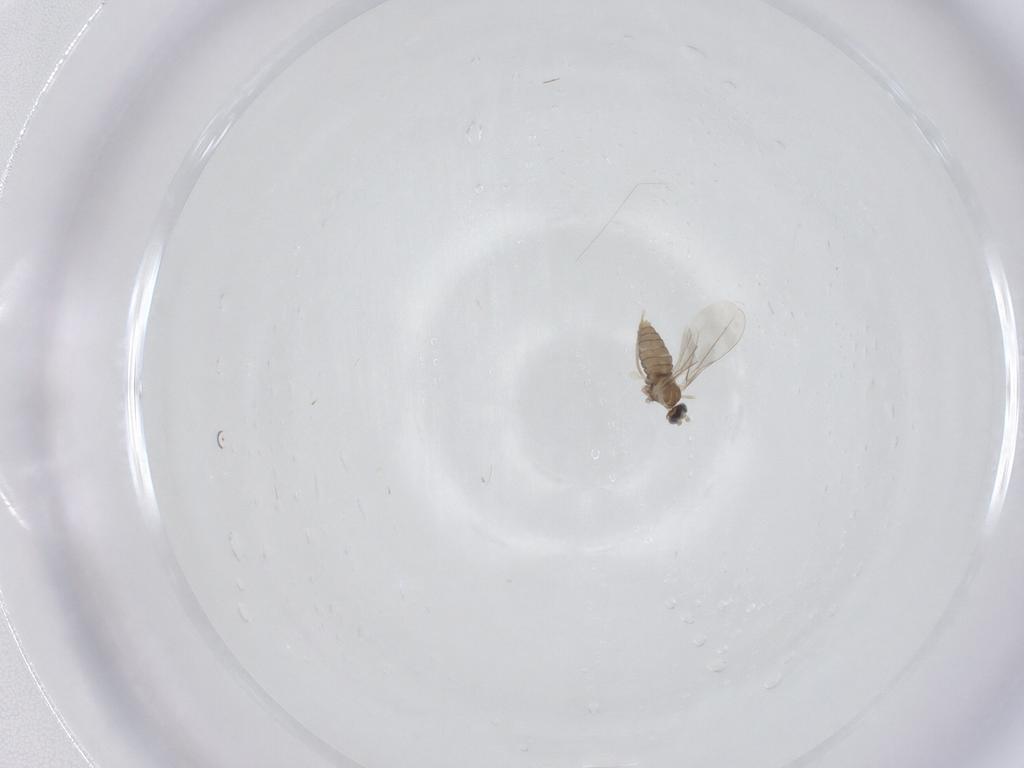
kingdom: Animalia
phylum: Arthropoda
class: Insecta
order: Diptera
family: Cecidomyiidae
